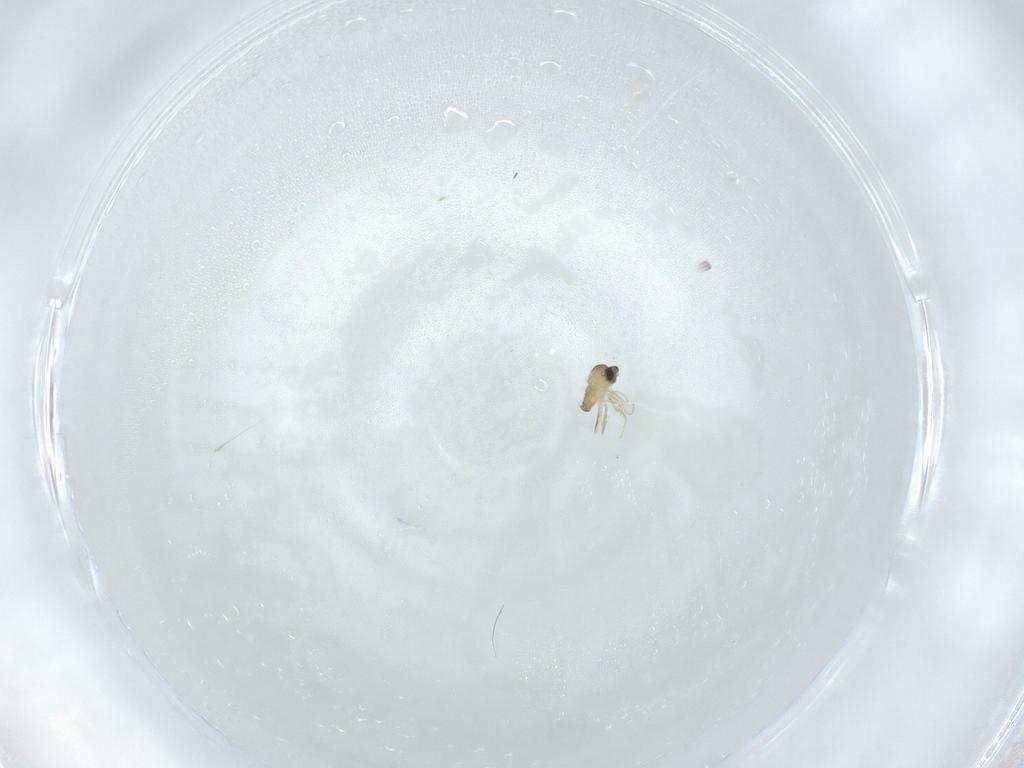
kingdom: Animalia
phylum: Arthropoda
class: Insecta
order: Diptera
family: Cecidomyiidae
